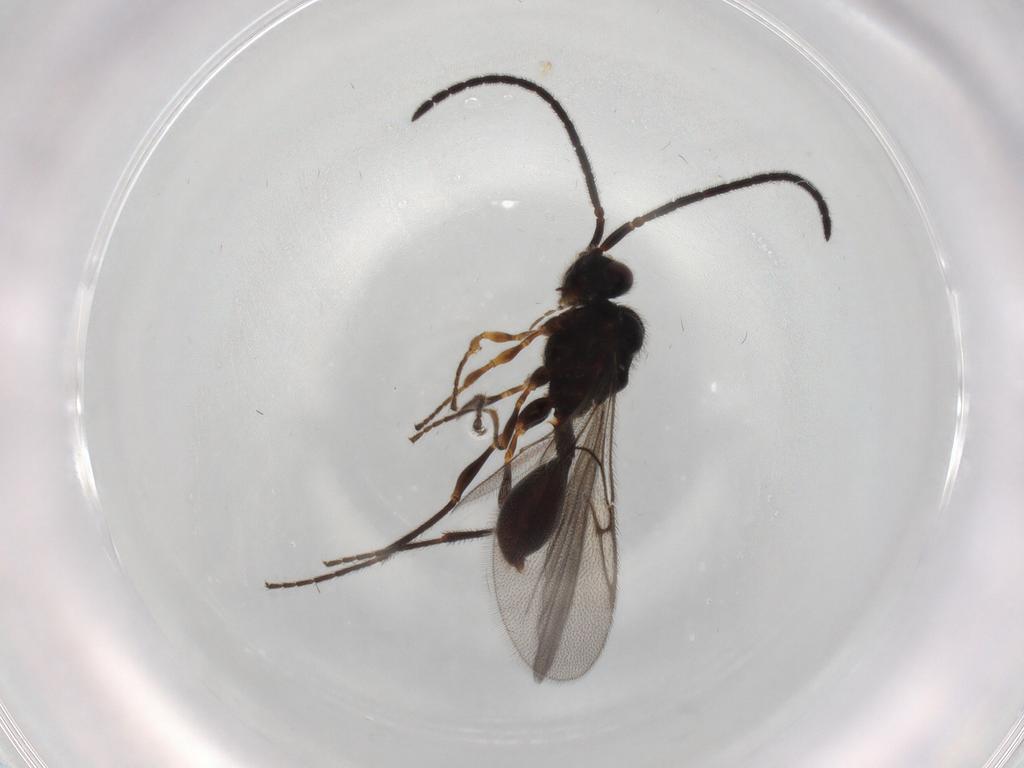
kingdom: Animalia
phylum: Arthropoda
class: Insecta
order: Hymenoptera
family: Diapriidae
